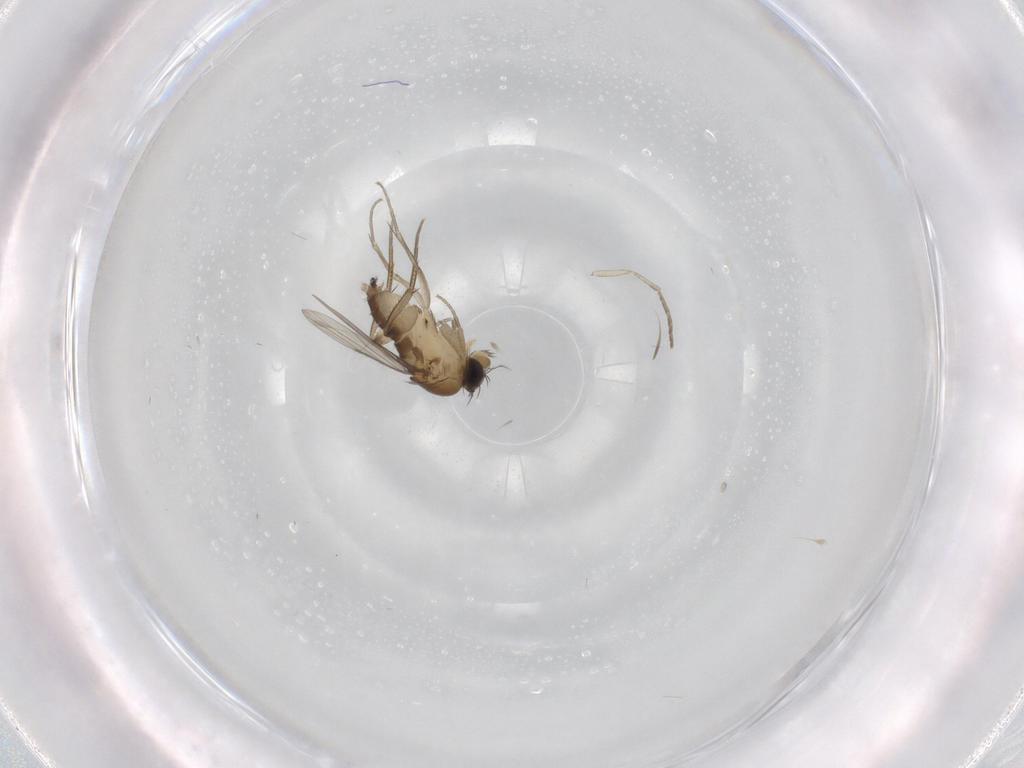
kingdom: Animalia
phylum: Arthropoda
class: Insecta
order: Diptera
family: Phoridae
